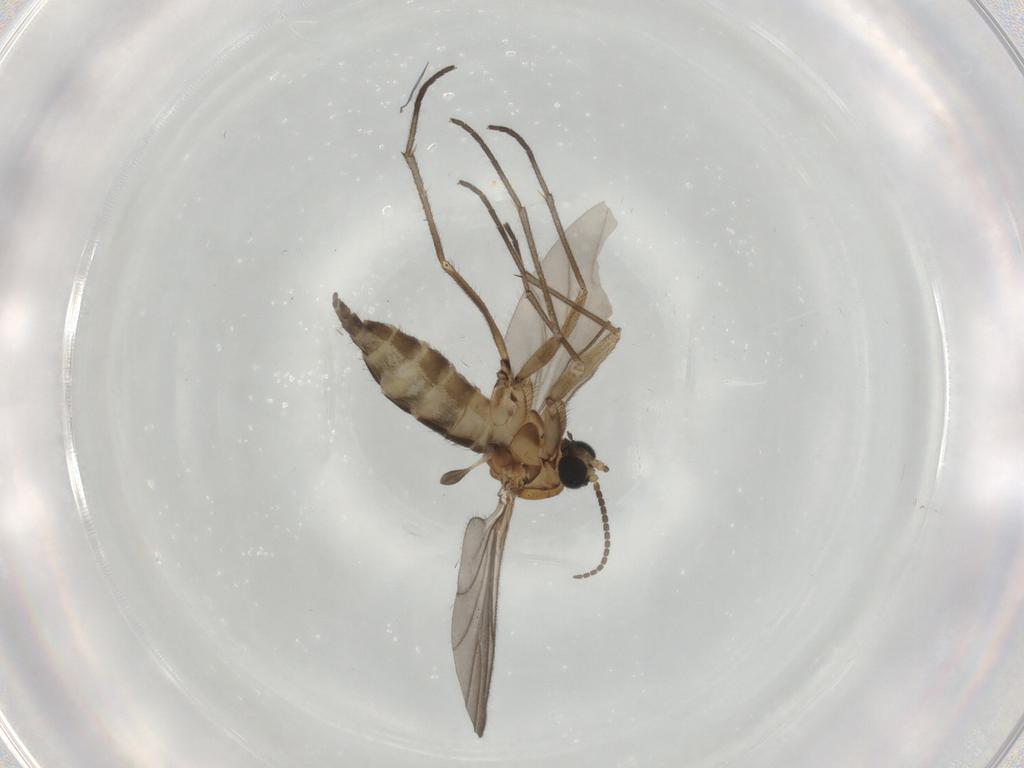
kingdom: Animalia
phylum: Arthropoda
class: Insecta
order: Diptera
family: Sciaridae
